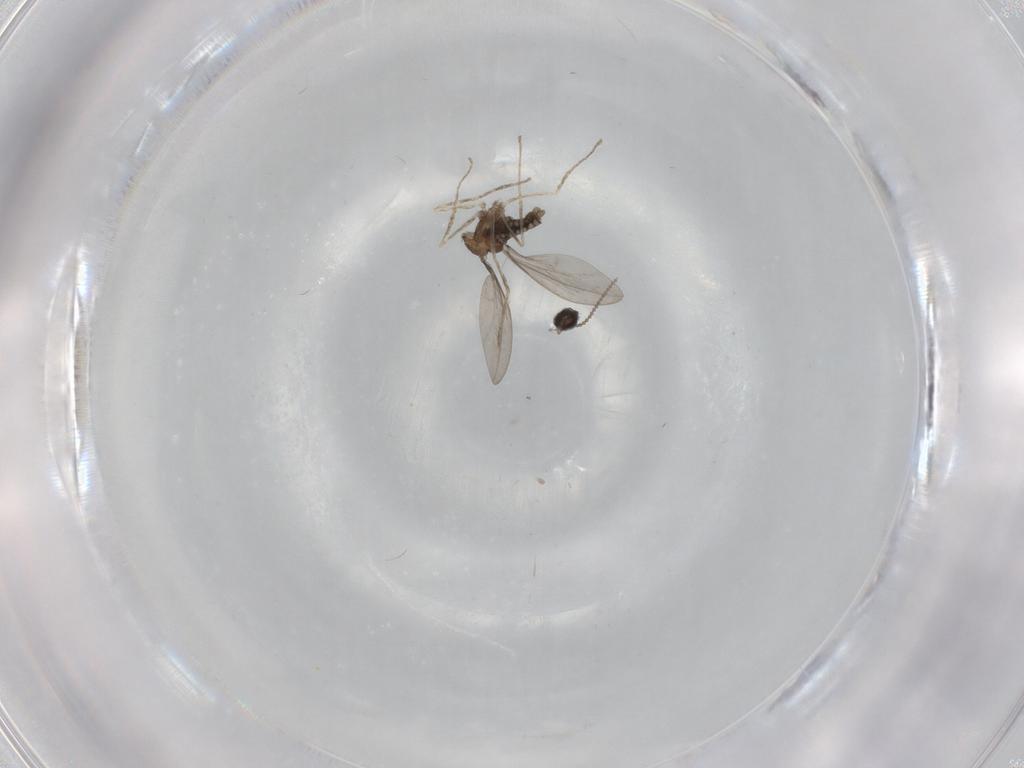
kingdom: Animalia
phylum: Arthropoda
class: Insecta
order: Diptera
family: Cecidomyiidae
